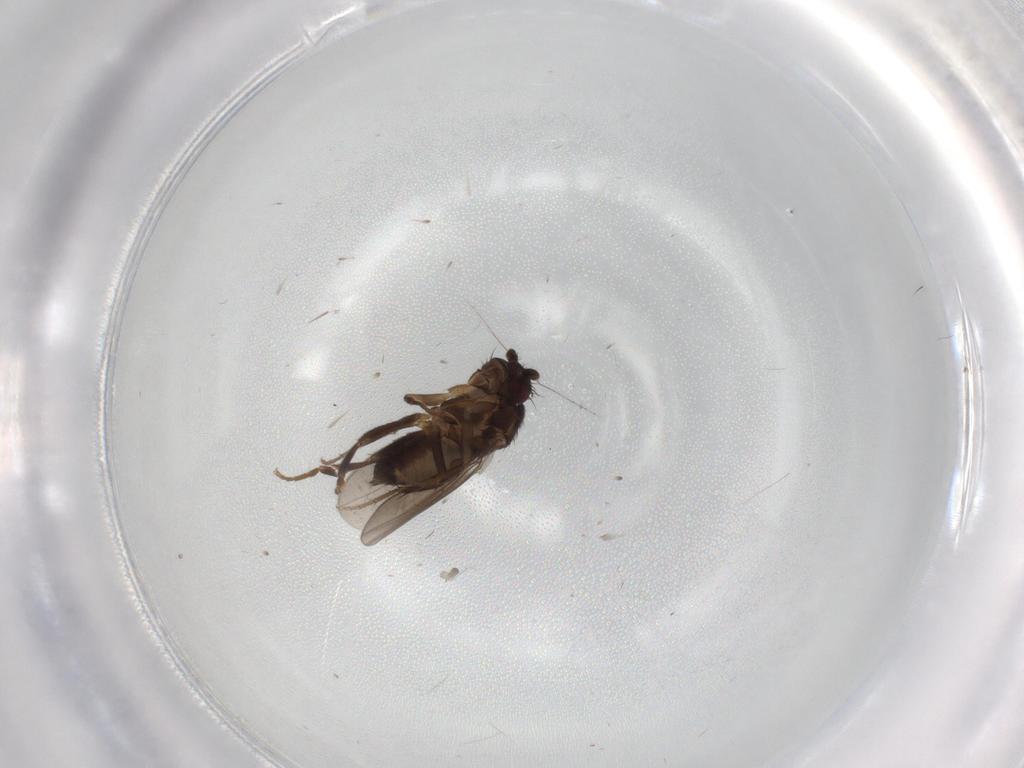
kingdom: Animalia
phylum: Arthropoda
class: Insecta
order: Diptera
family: Sphaeroceridae
